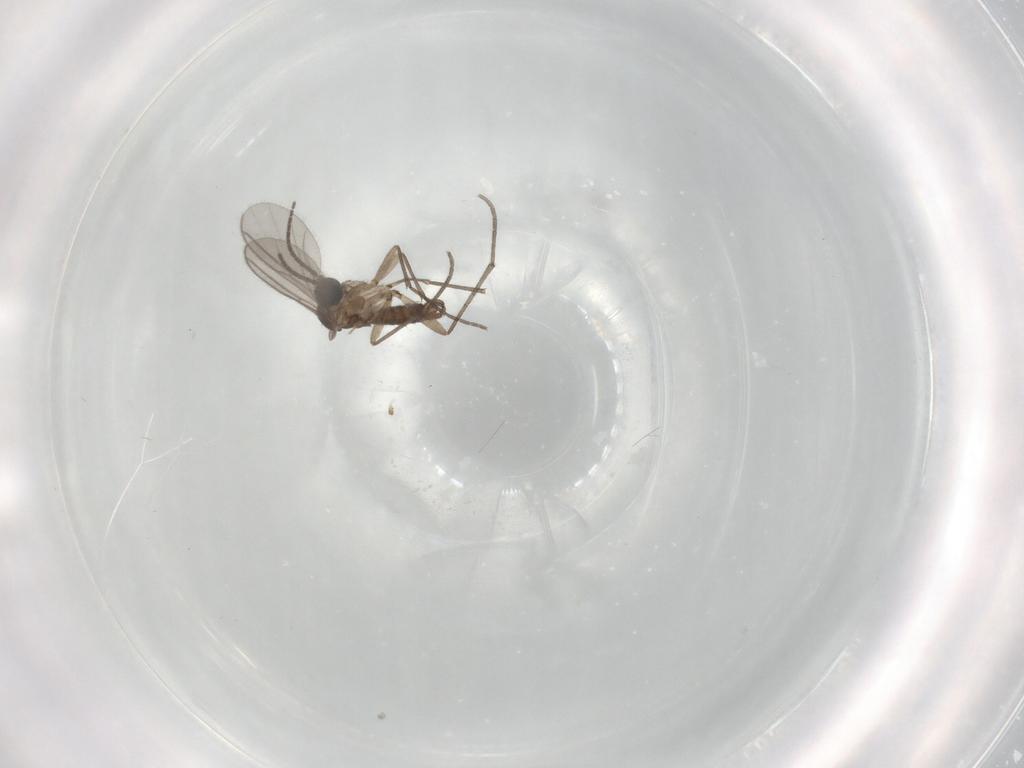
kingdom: Animalia
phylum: Arthropoda
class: Insecta
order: Diptera
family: Sciaridae
